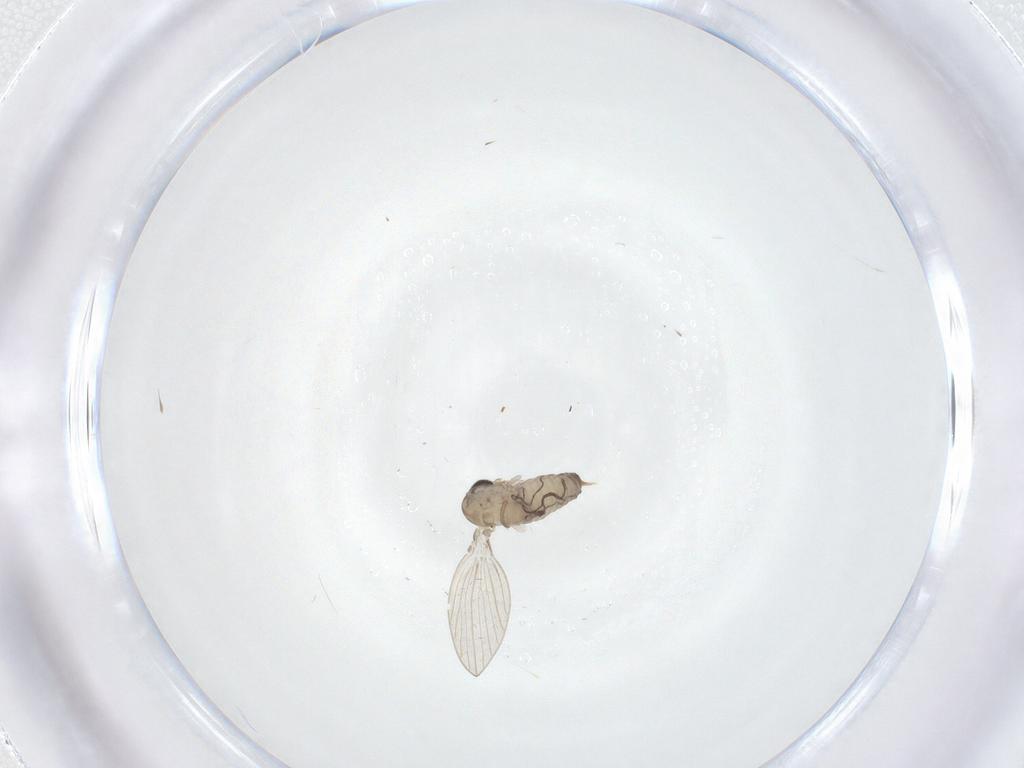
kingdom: Animalia
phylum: Arthropoda
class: Insecta
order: Diptera
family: Psychodidae
